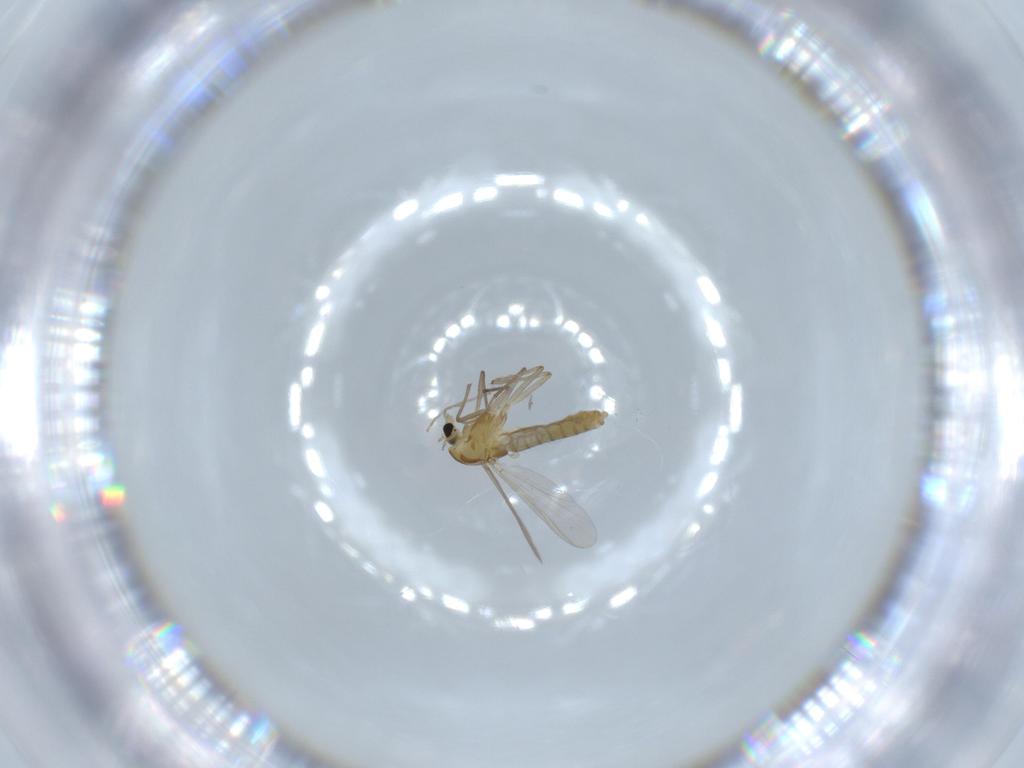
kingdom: Animalia
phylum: Arthropoda
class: Insecta
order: Diptera
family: Chironomidae
